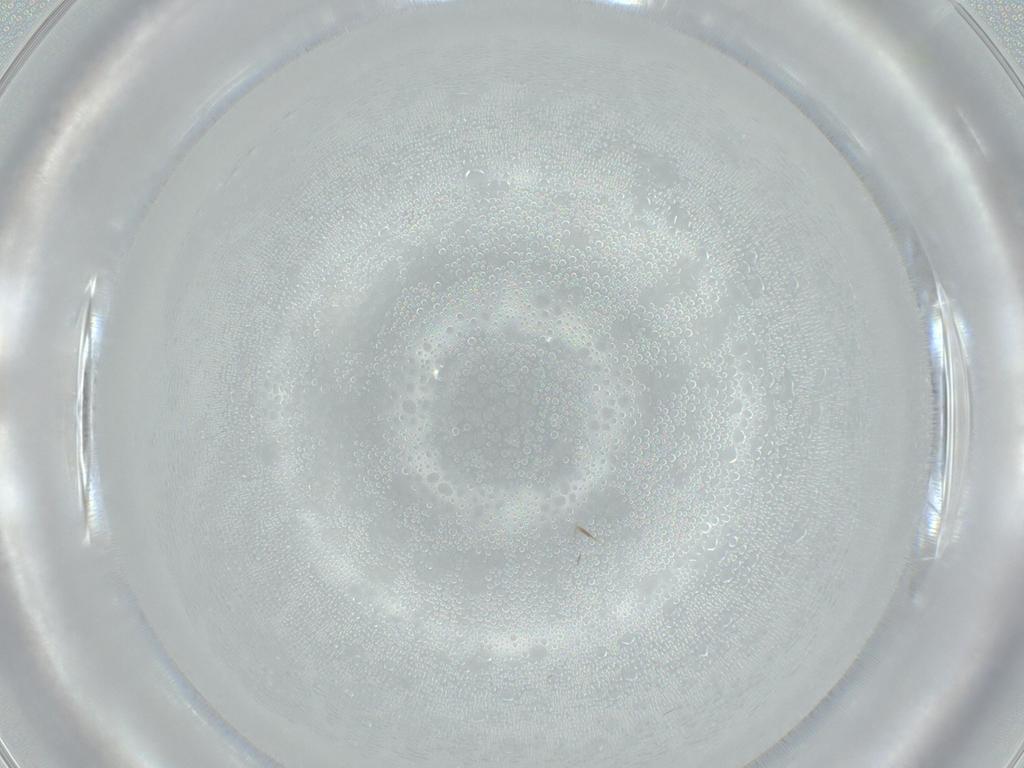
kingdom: Animalia
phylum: Arthropoda
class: Insecta
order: Hymenoptera
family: Mymarommatidae
